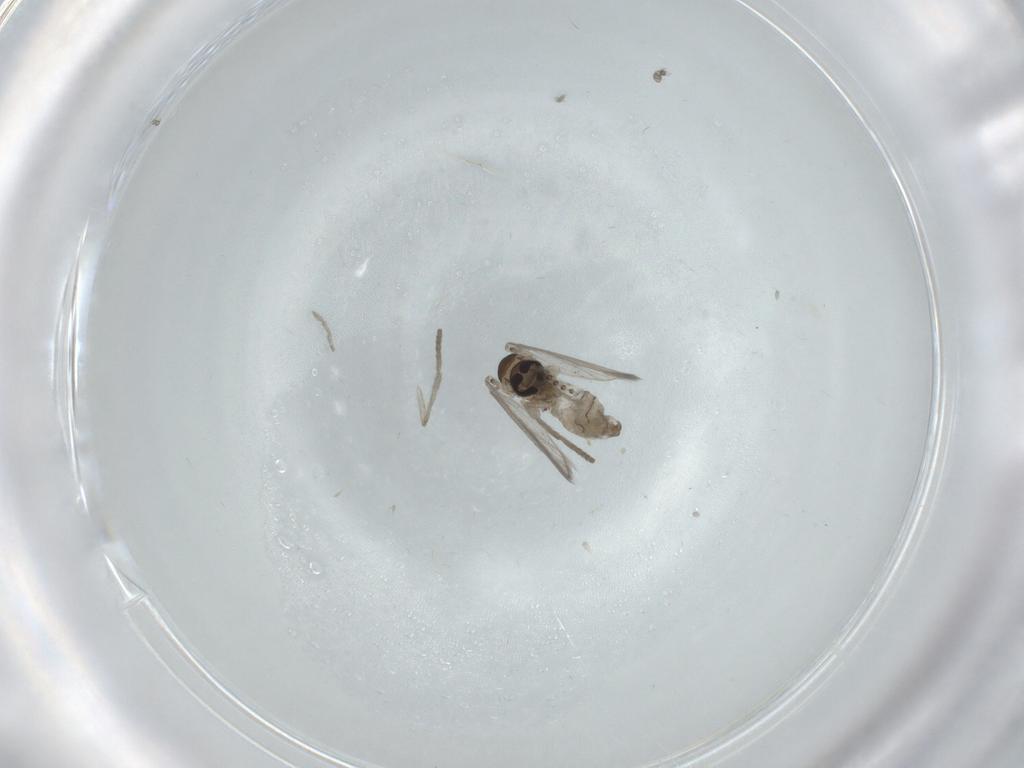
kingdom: Animalia
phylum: Arthropoda
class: Insecta
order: Diptera
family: Psychodidae
